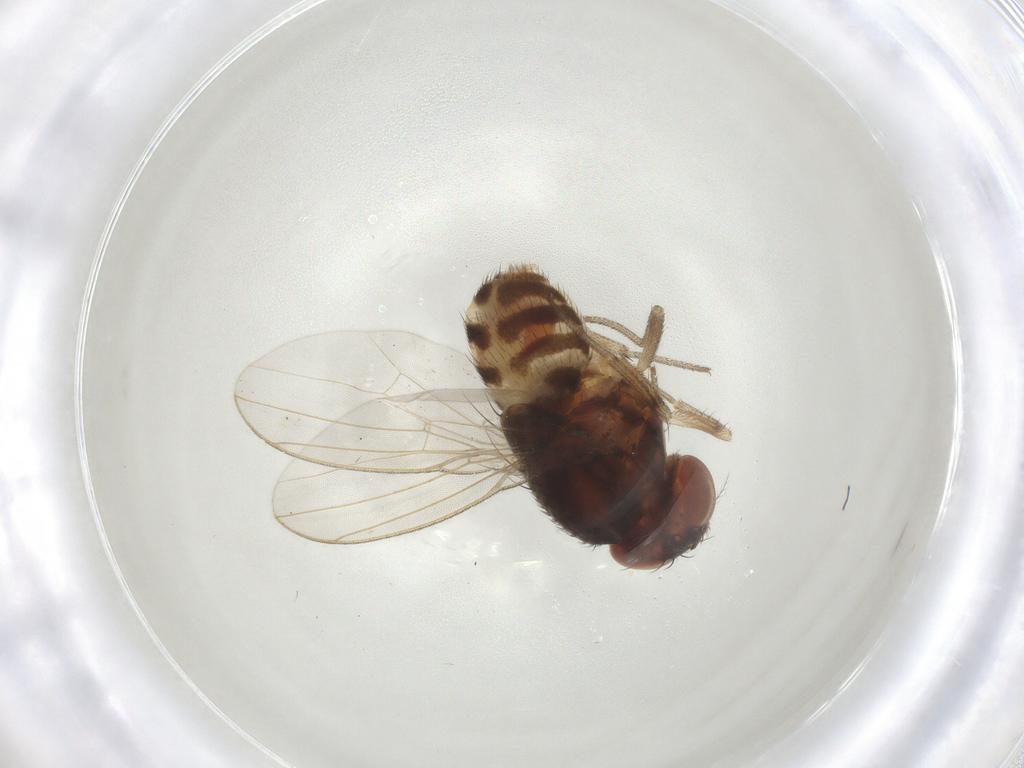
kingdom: Animalia
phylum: Arthropoda
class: Insecta
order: Diptera
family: Drosophilidae
